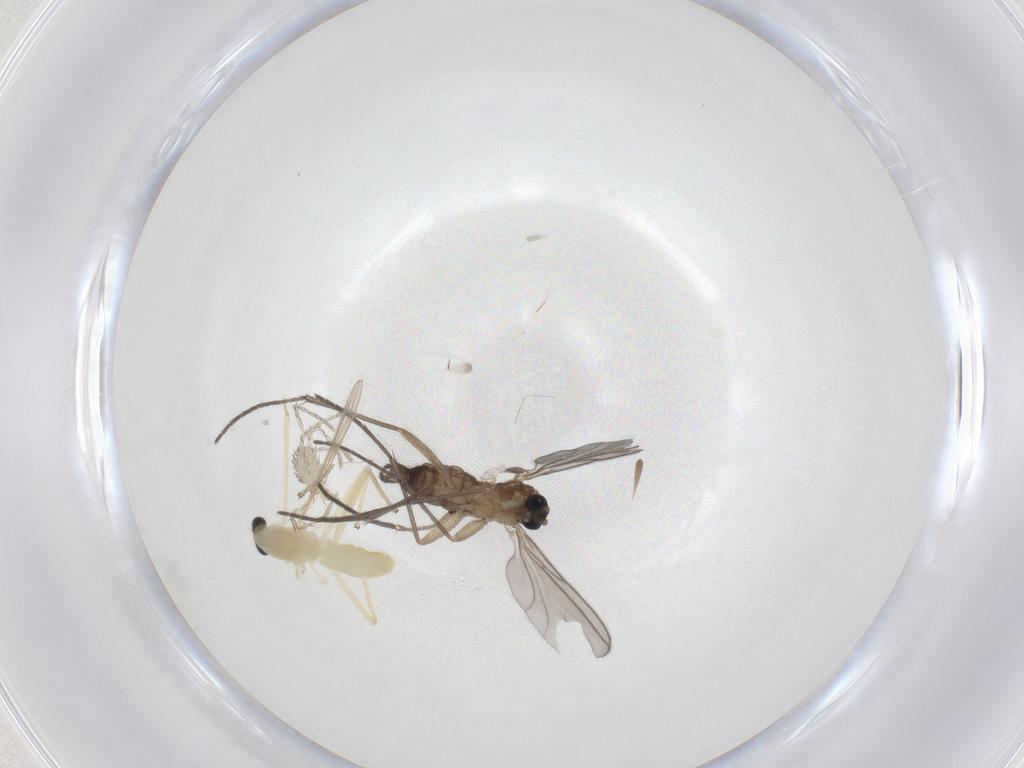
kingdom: Animalia
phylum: Arthropoda
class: Insecta
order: Diptera
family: Chironomidae
